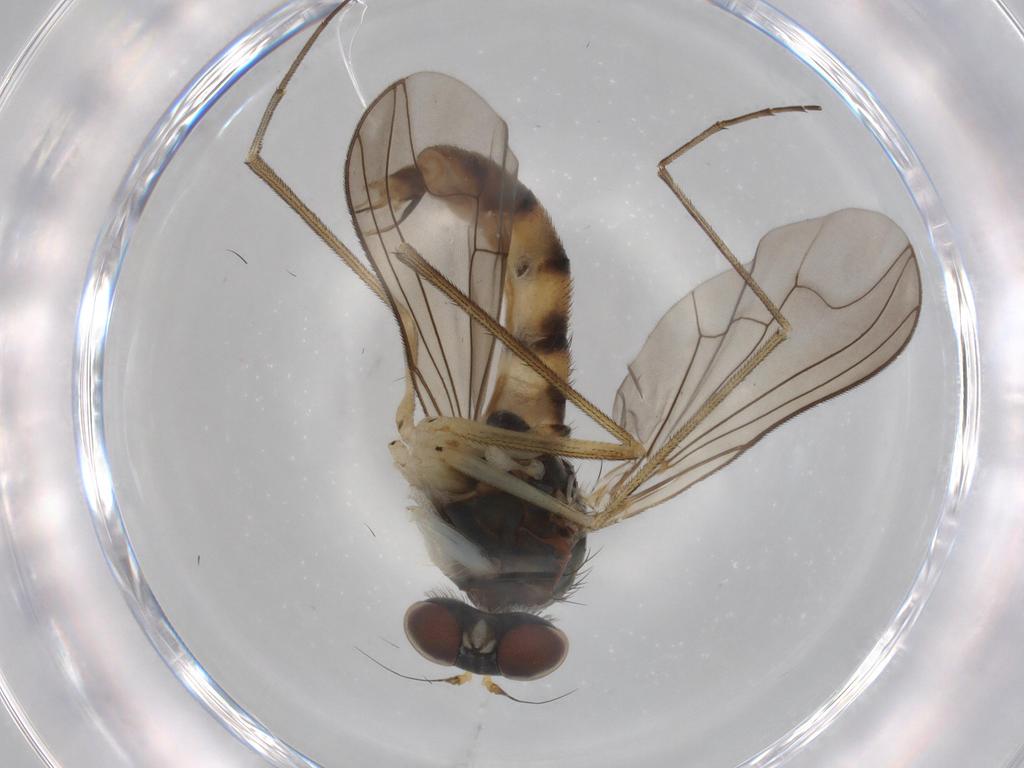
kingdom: Animalia
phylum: Arthropoda
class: Insecta
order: Diptera
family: Dolichopodidae
